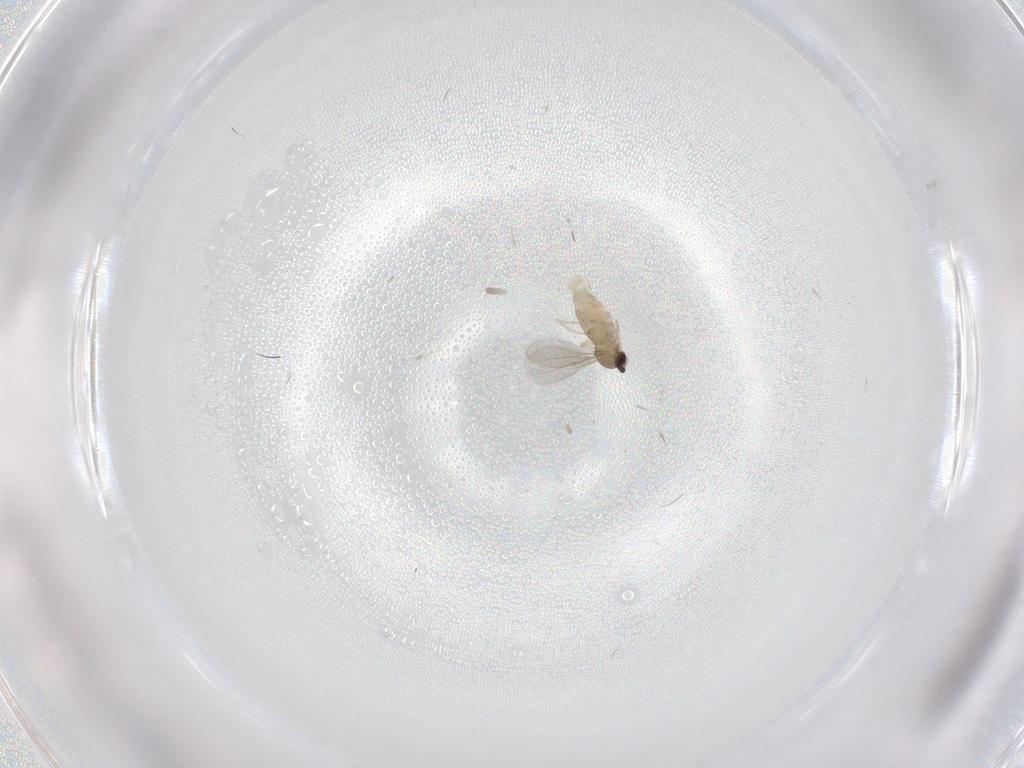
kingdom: Animalia
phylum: Arthropoda
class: Insecta
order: Diptera
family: Cecidomyiidae
